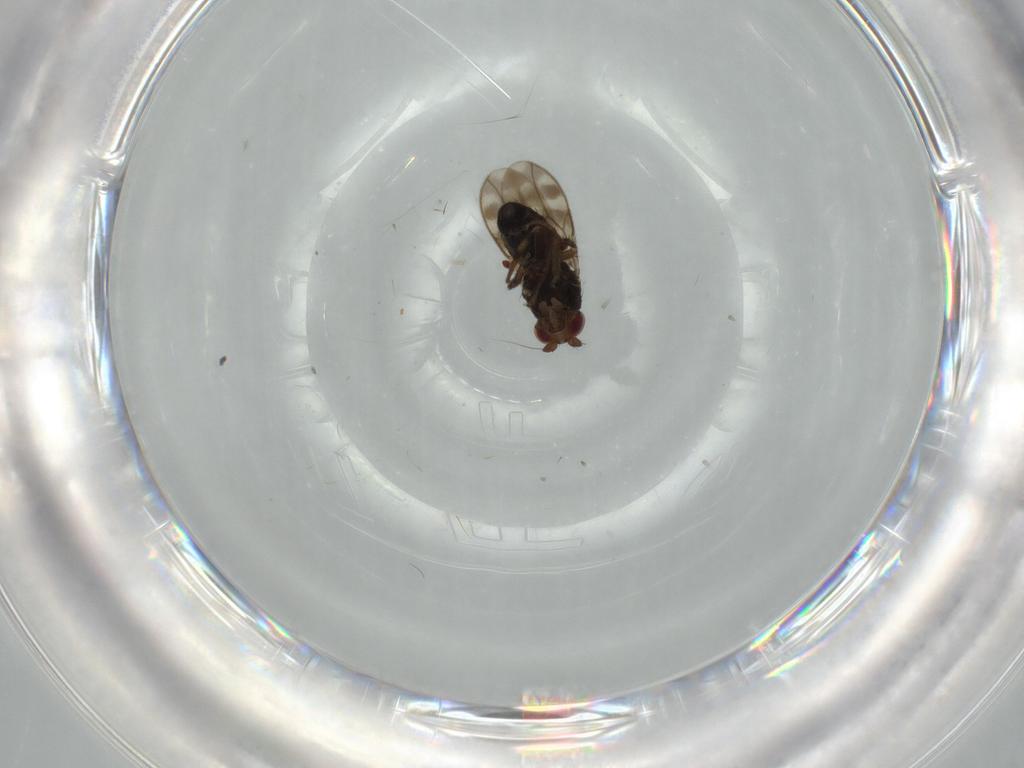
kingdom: Animalia
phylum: Arthropoda
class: Insecta
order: Diptera
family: Sphaeroceridae
